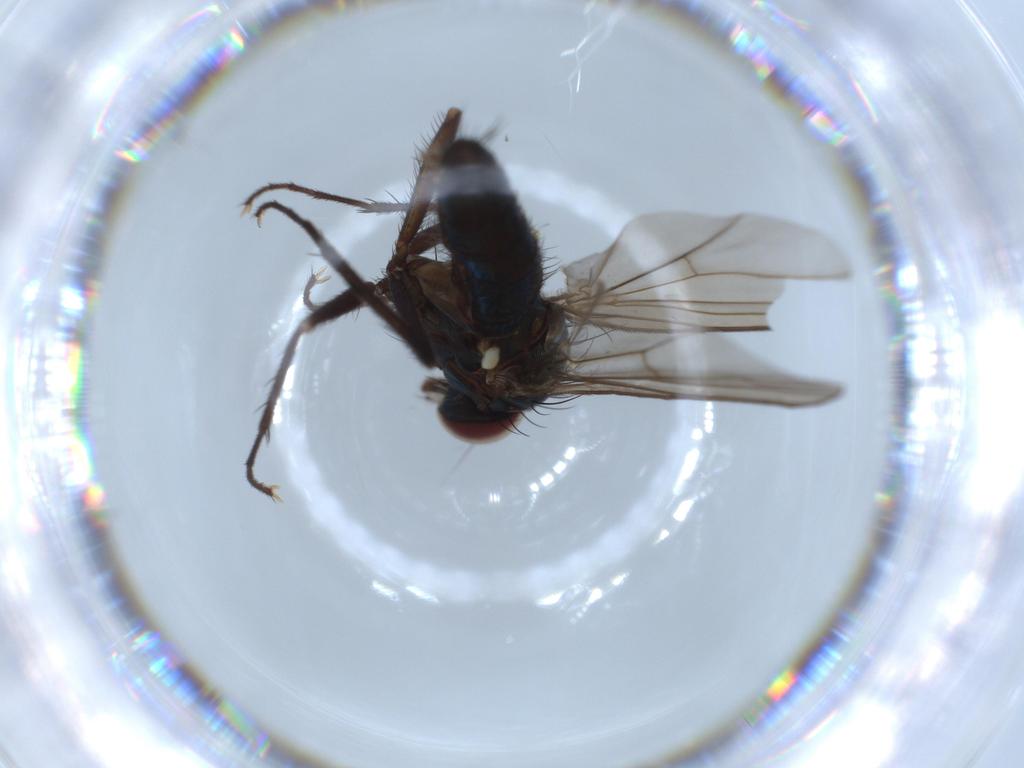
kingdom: Animalia
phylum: Arthropoda
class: Insecta
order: Diptera
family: Dolichopodidae
